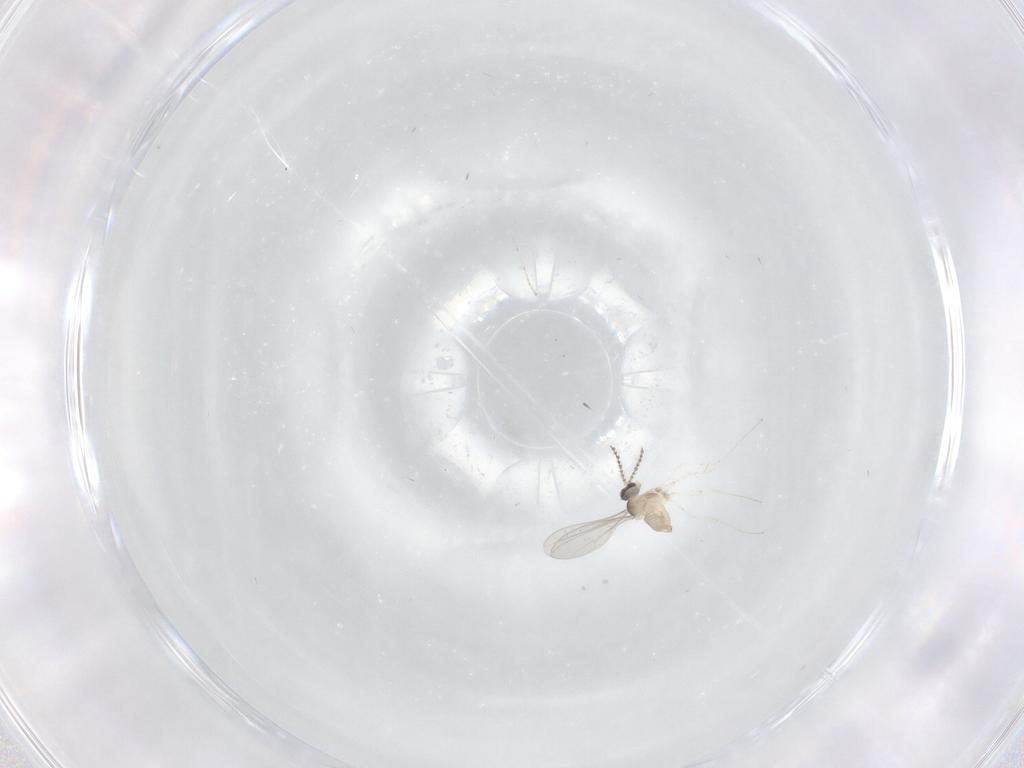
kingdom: Animalia
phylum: Arthropoda
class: Insecta
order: Diptera
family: Cecidomyiidae
